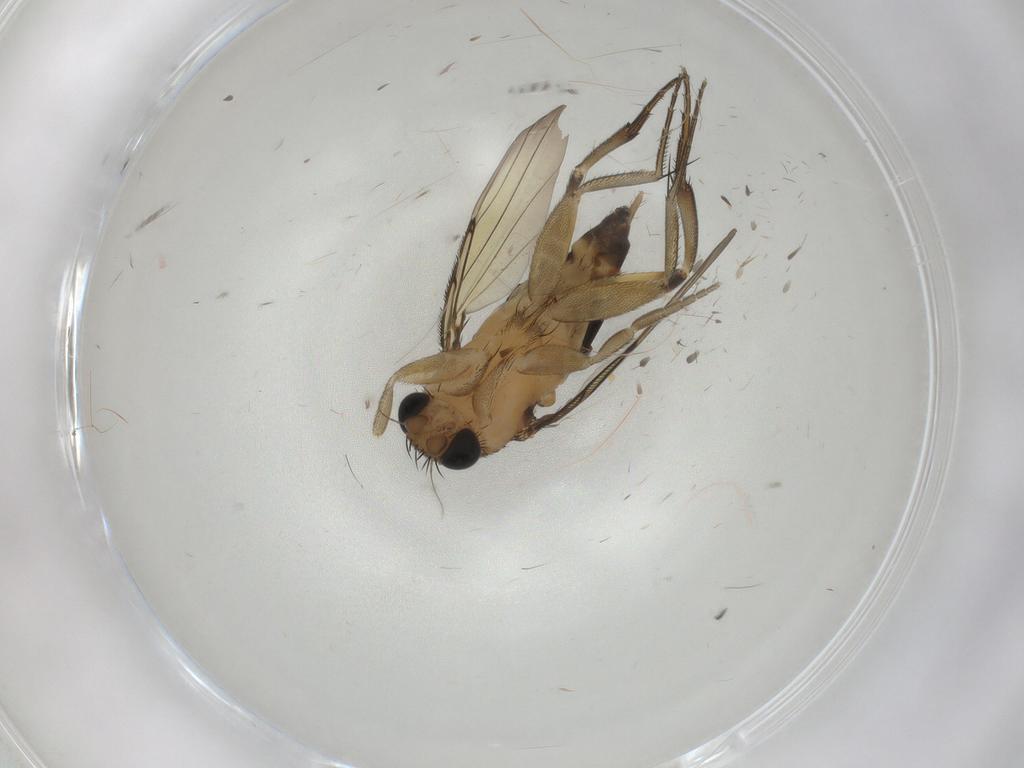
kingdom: Animalia
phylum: Arthropoda
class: Insecta
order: Diptera
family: Phoridae
